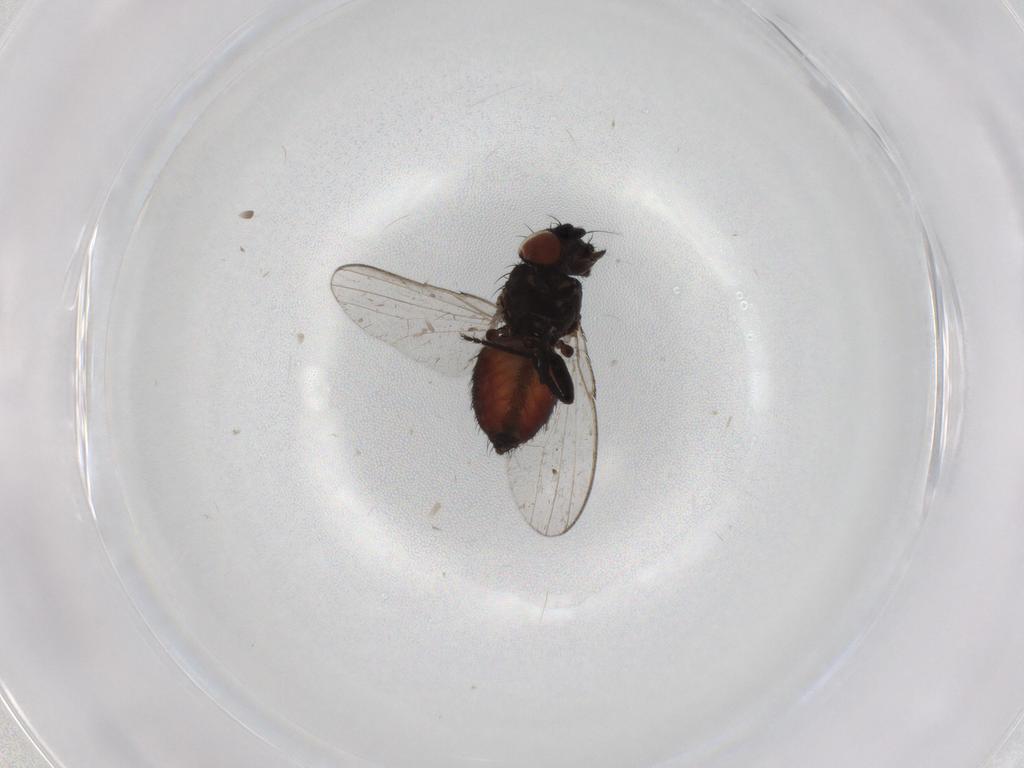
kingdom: Animalia
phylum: Arthropoda
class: Insecta
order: Diptera
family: Milichiidae
